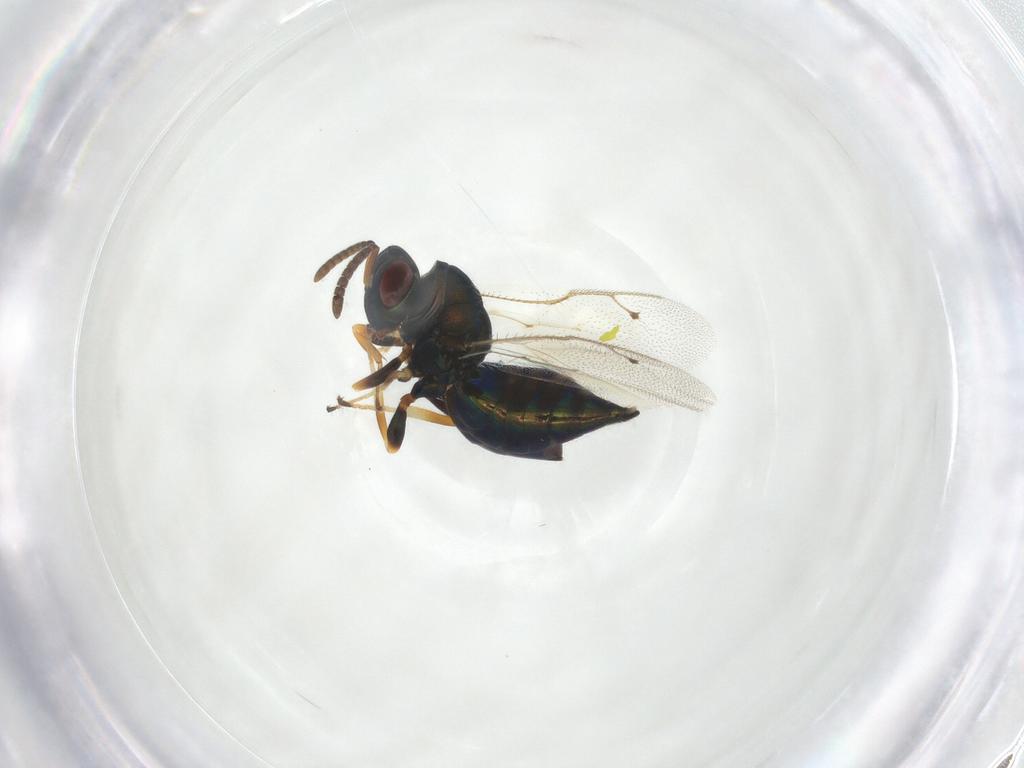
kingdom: Animalia
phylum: Arthropoda
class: Insecta
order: Hymenoptera
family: Pteromalidae
